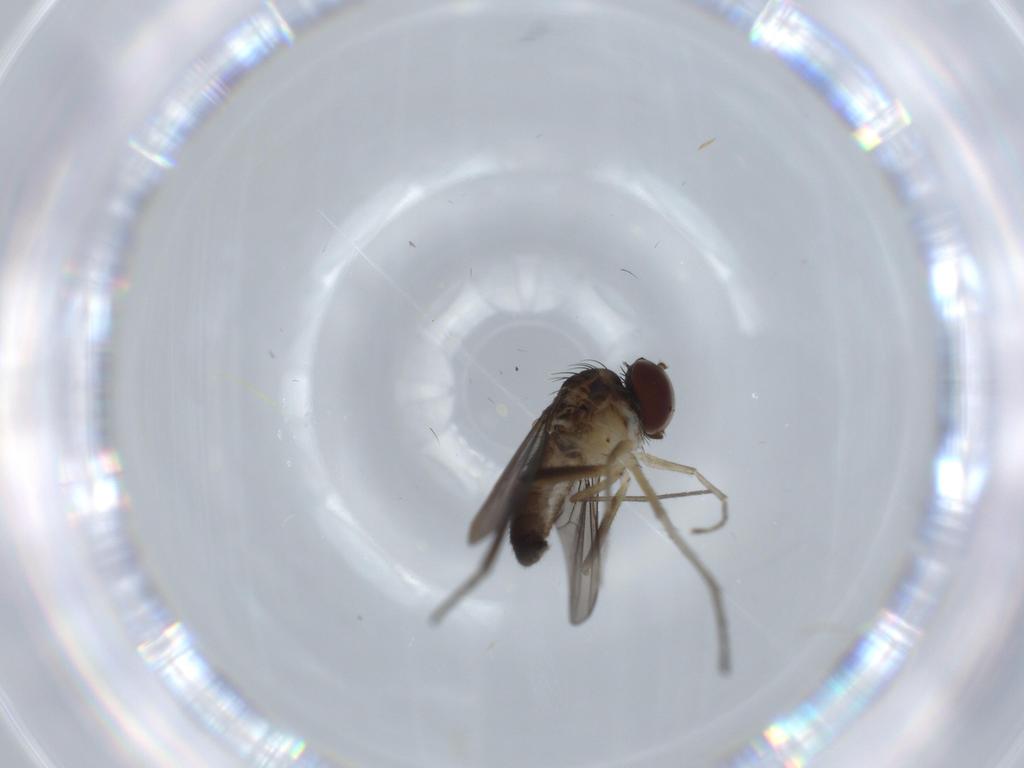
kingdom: Animalia
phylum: Arthropoda
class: Insecta
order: Diptera
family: Dolichopodidae
